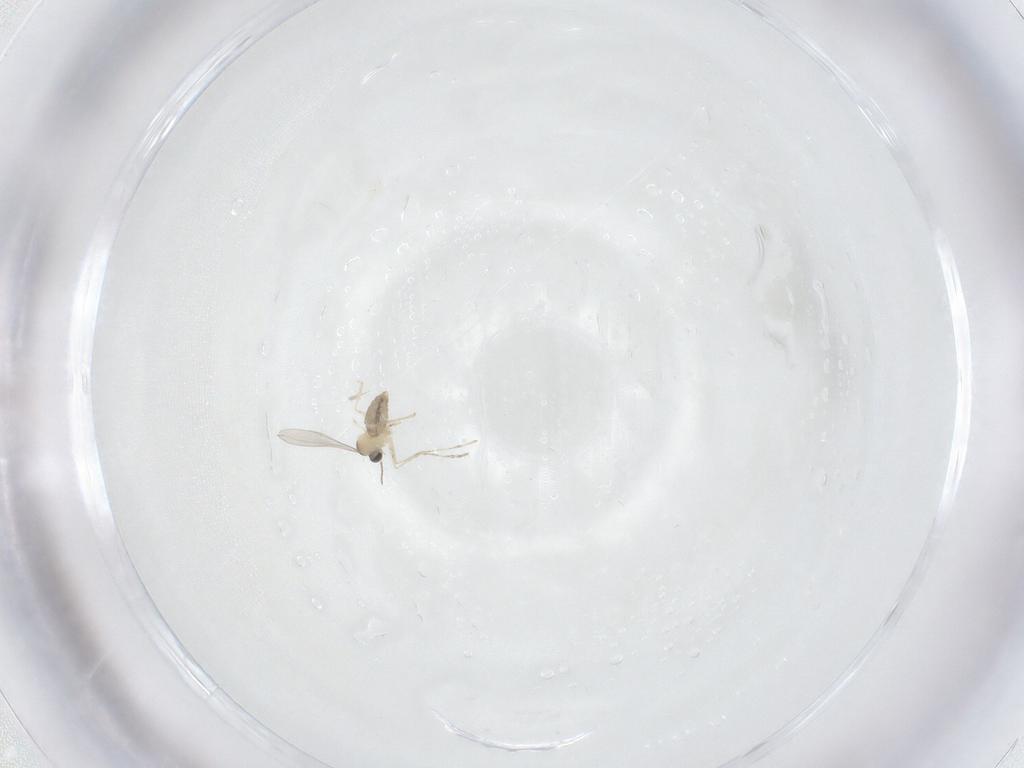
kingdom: Animalia
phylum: Arthropoda
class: Insecta
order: Diptera
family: Cecidomyiidae
